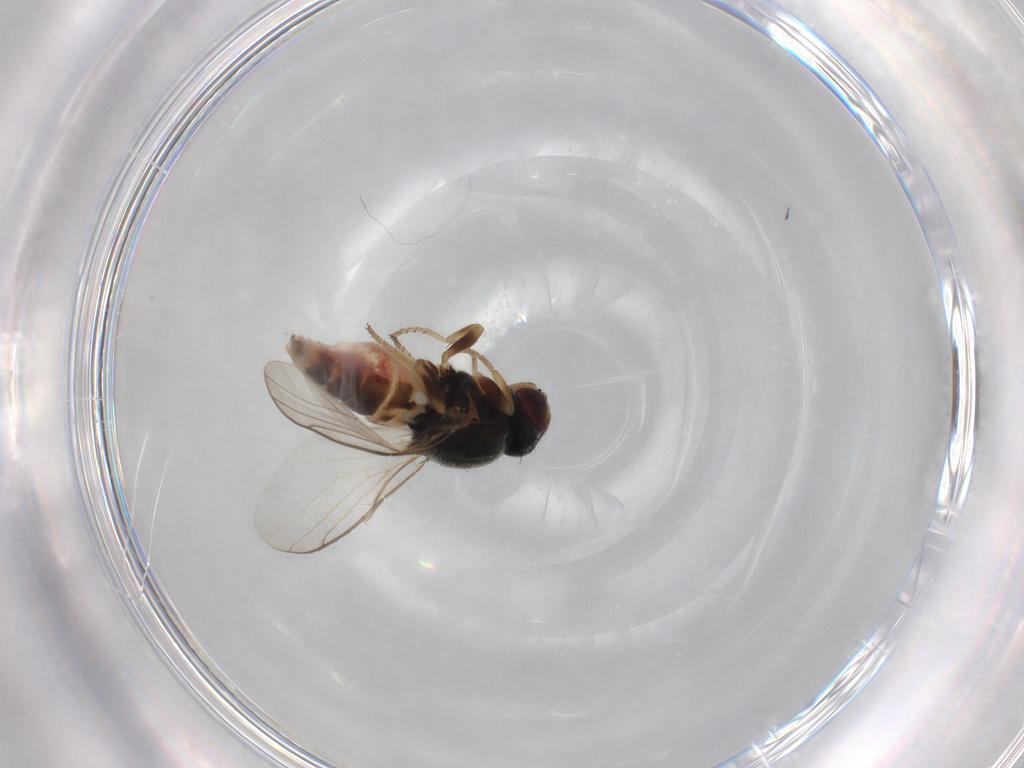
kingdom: Animalia
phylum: Arthropoda
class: Insecta
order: Diptera
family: Chloropidae
